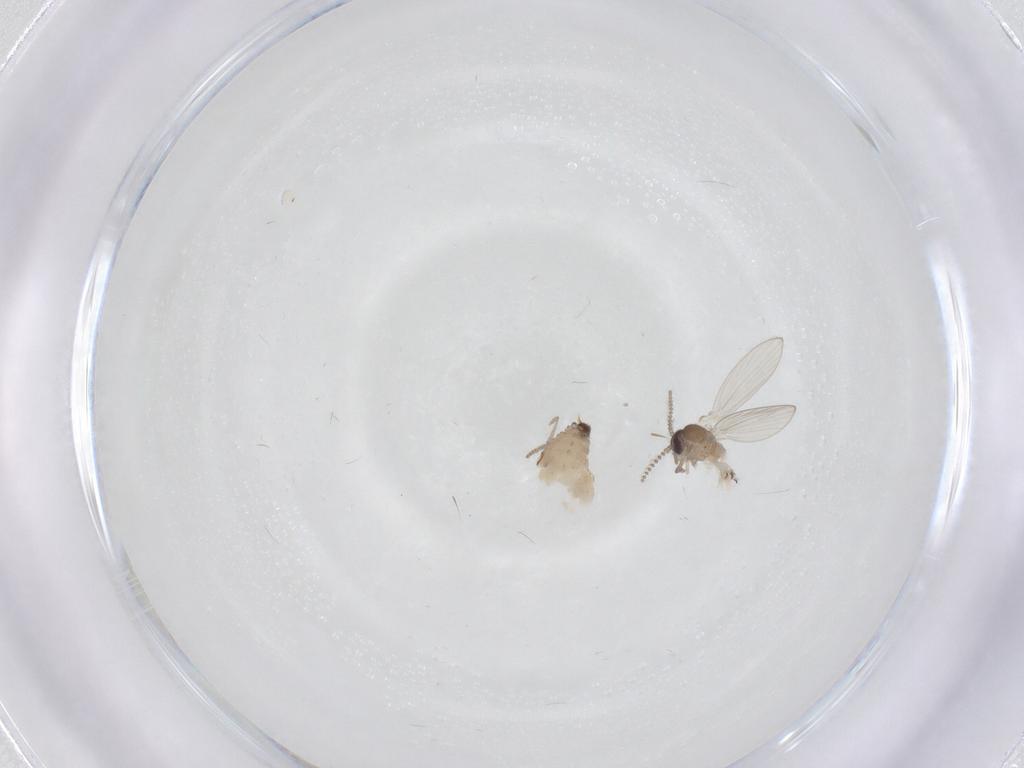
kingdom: Animalia
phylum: Arthropoda
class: Insecta
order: Diptera
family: Psychodidae
